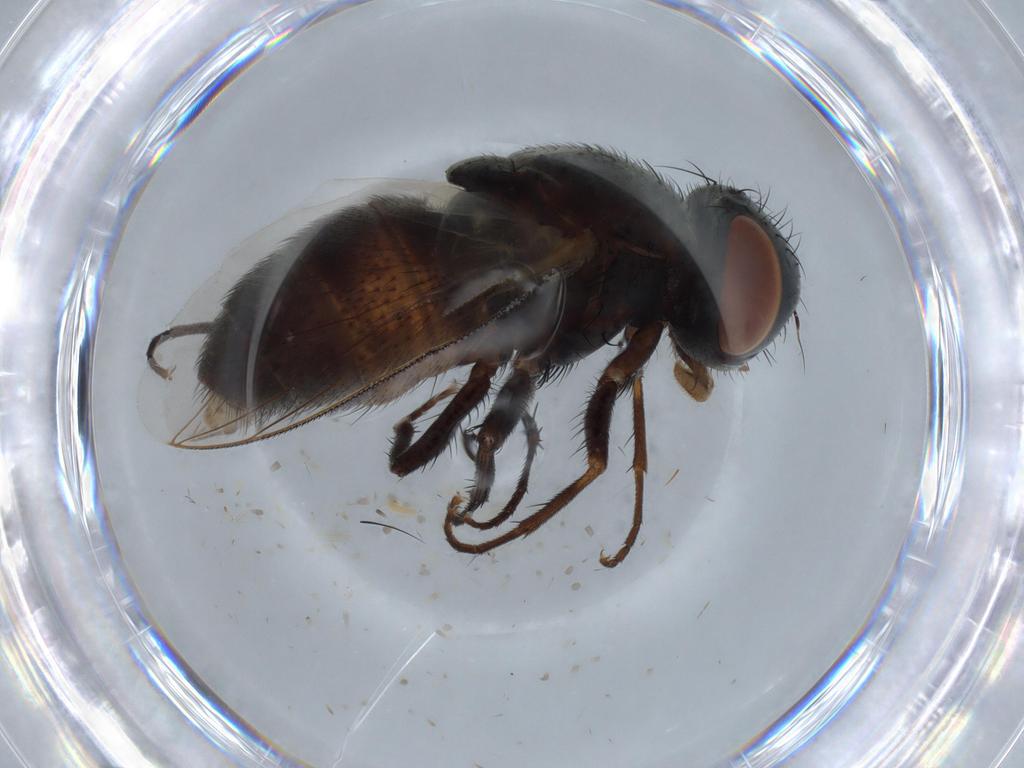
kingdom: Animalia
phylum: Arthropoda
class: Insecta
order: Diptera
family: Sarcophagidae
